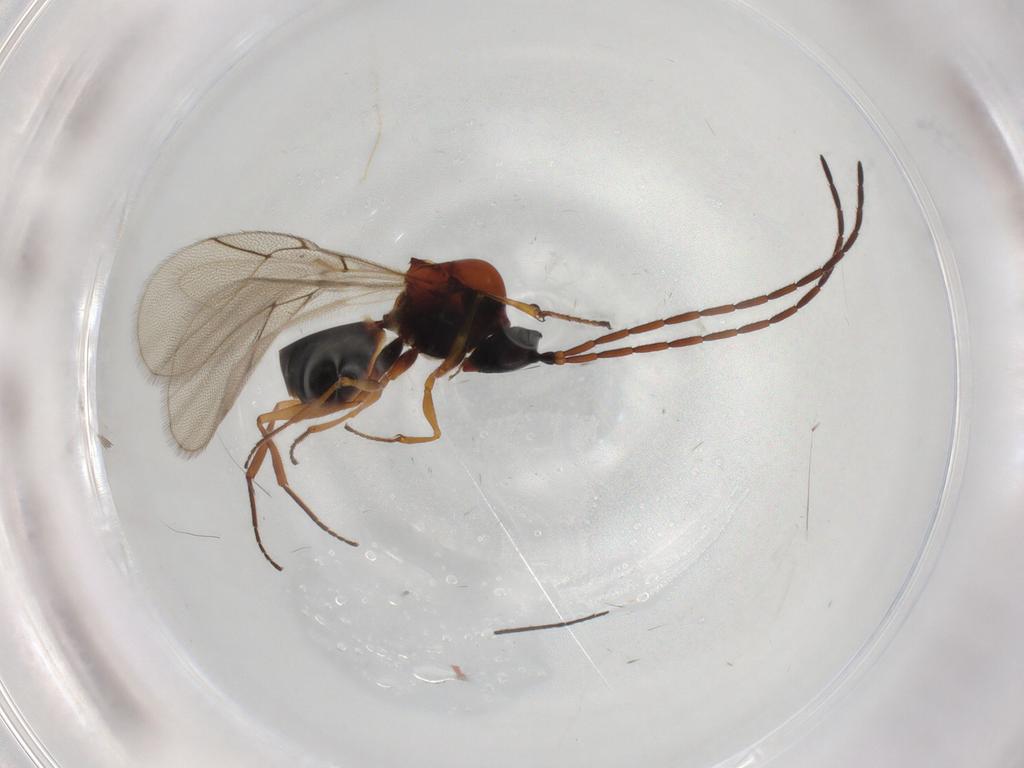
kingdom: Animalia
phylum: Arthropoda
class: Insecta
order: Hymenoptera
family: Figitidae
